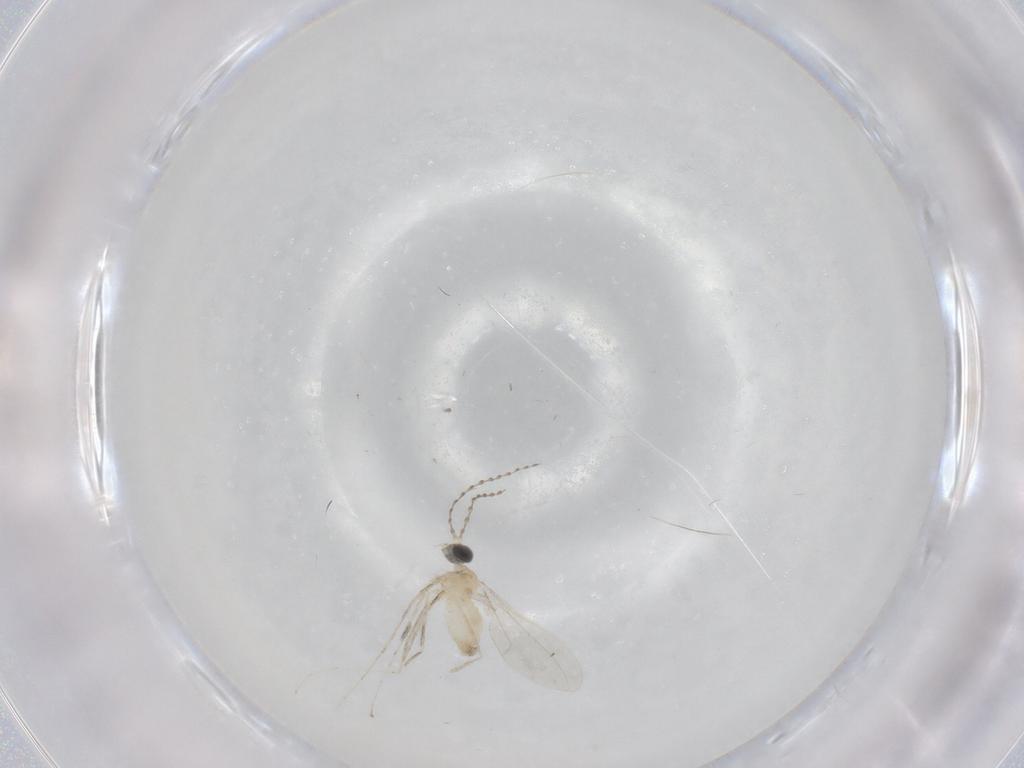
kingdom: Animalia
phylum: Arthropoda
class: Insecta
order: Diptera
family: Cecidomyiidae
